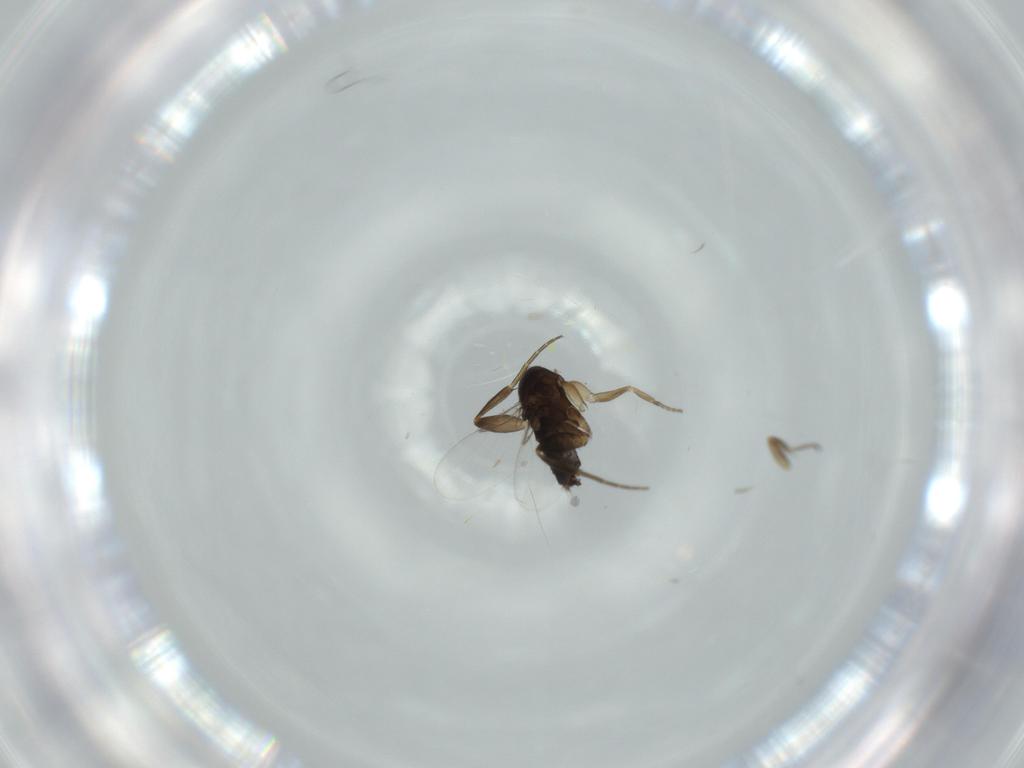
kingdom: Animalia
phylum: Arthropoda
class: Insecta
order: Diptera
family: Phoridae
